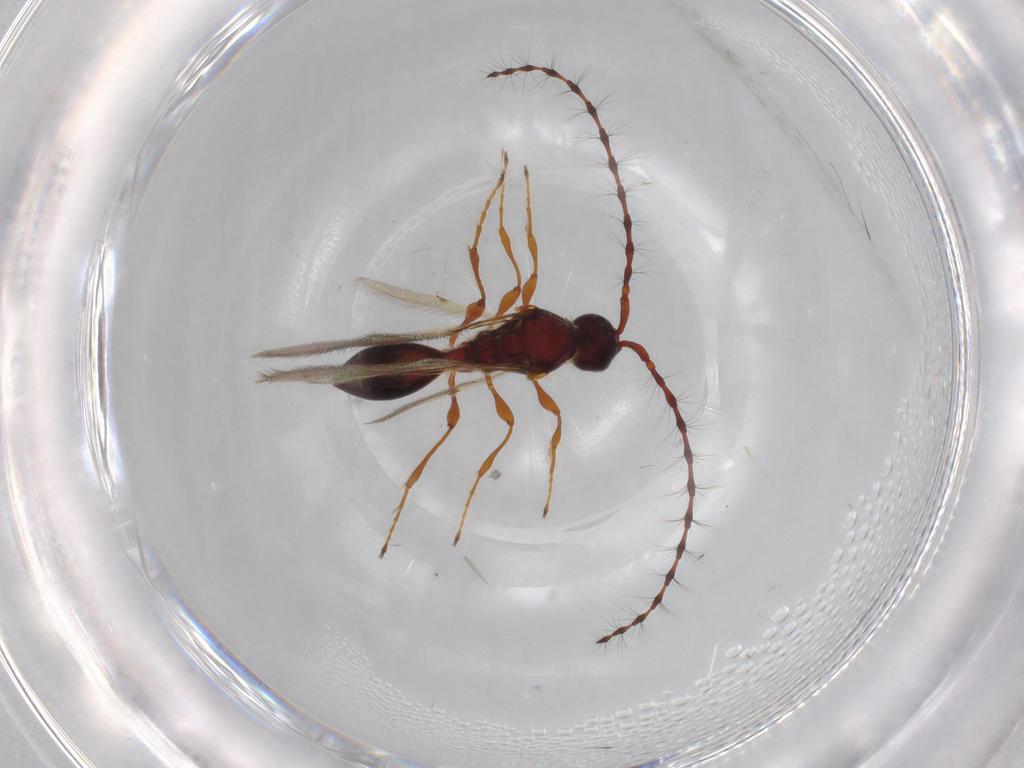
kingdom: Animalia
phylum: Arthropoda
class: Insecta
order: Hymenoptera
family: Diapriidae
